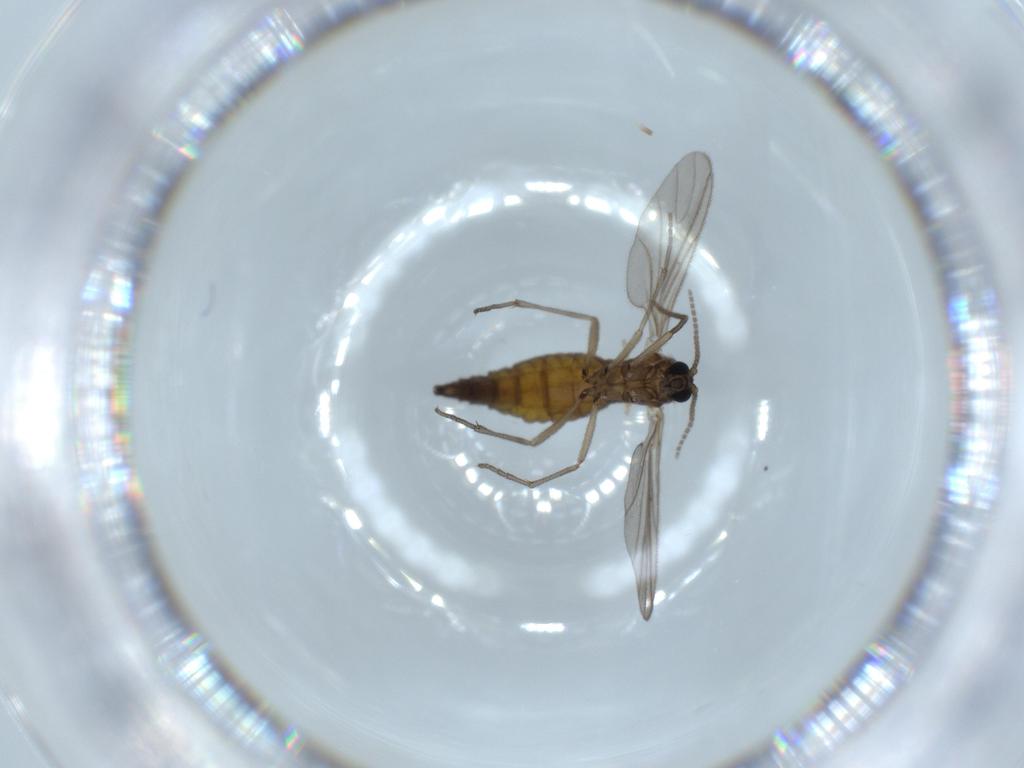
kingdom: Animalia
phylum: Arthropoda
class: Insecta
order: Diptera
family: Sciaridae
